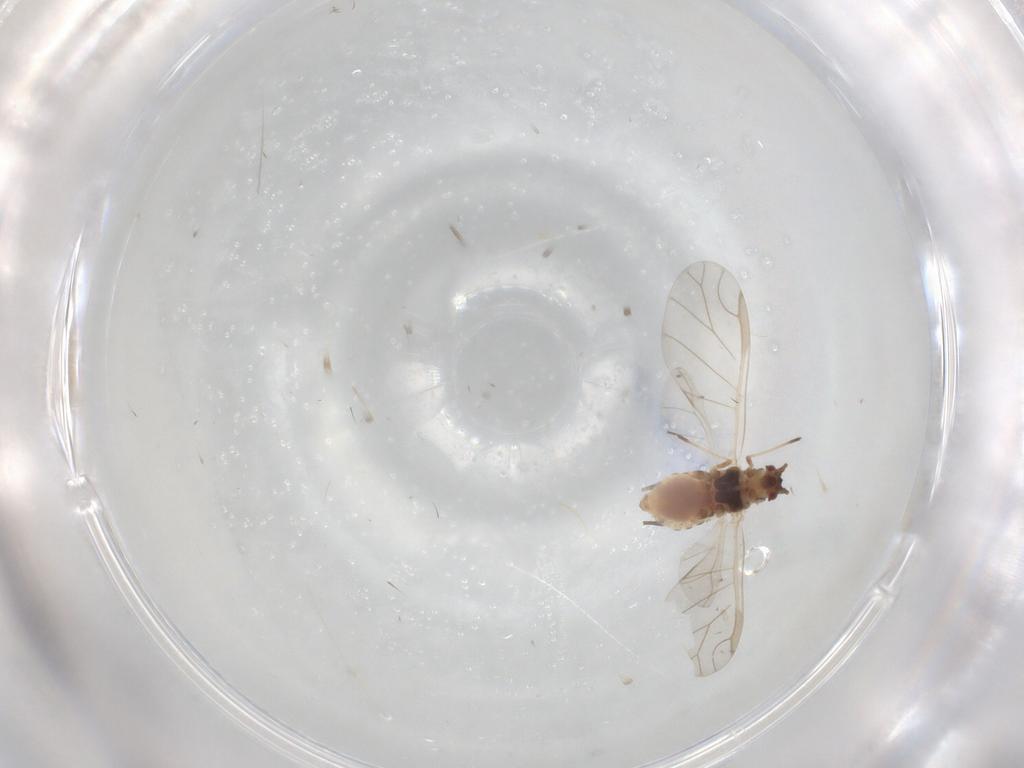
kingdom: Animalia
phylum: Arthropoda
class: Insecta
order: Hemiptera
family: Aphididae
